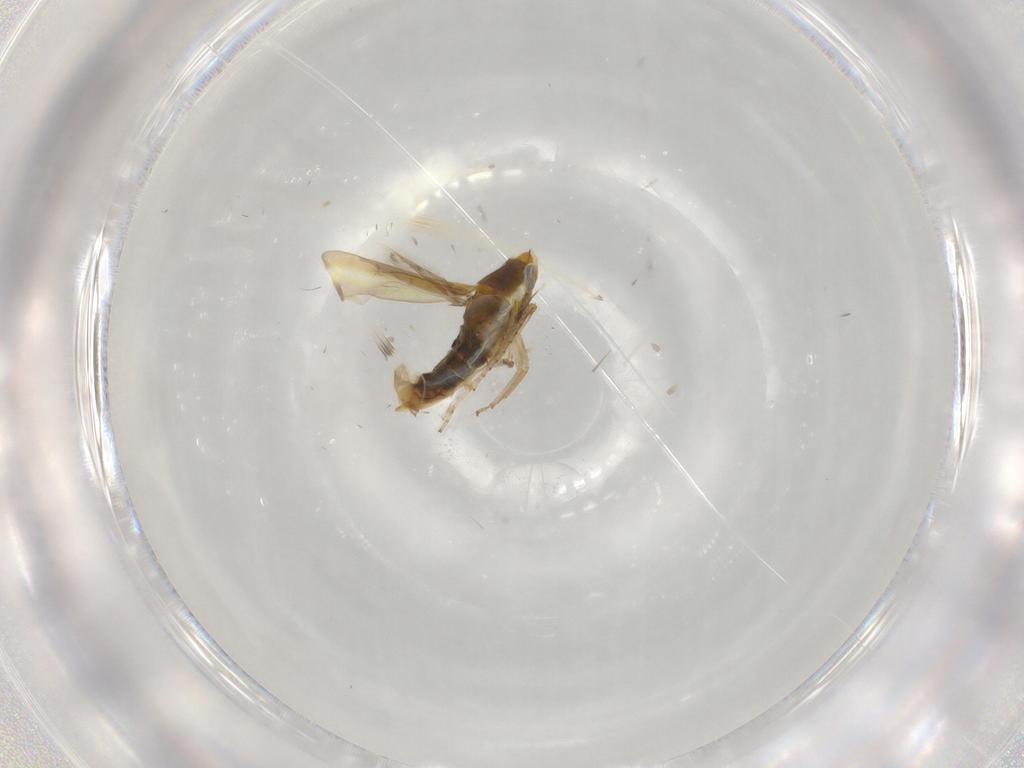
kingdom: Animalia
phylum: Arthropoda
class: Insecta
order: Hemiptera
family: Cicadellidae
